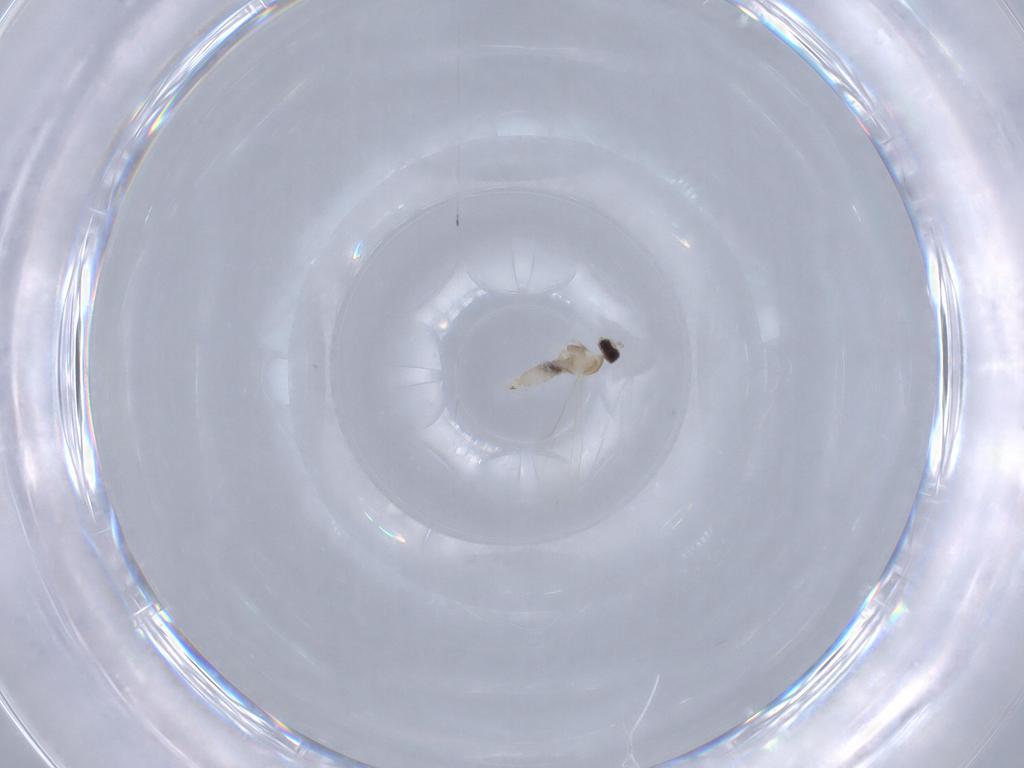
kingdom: Animalia
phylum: Arthropoda
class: Insecta
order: Diptera
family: Cecidomyiidae
